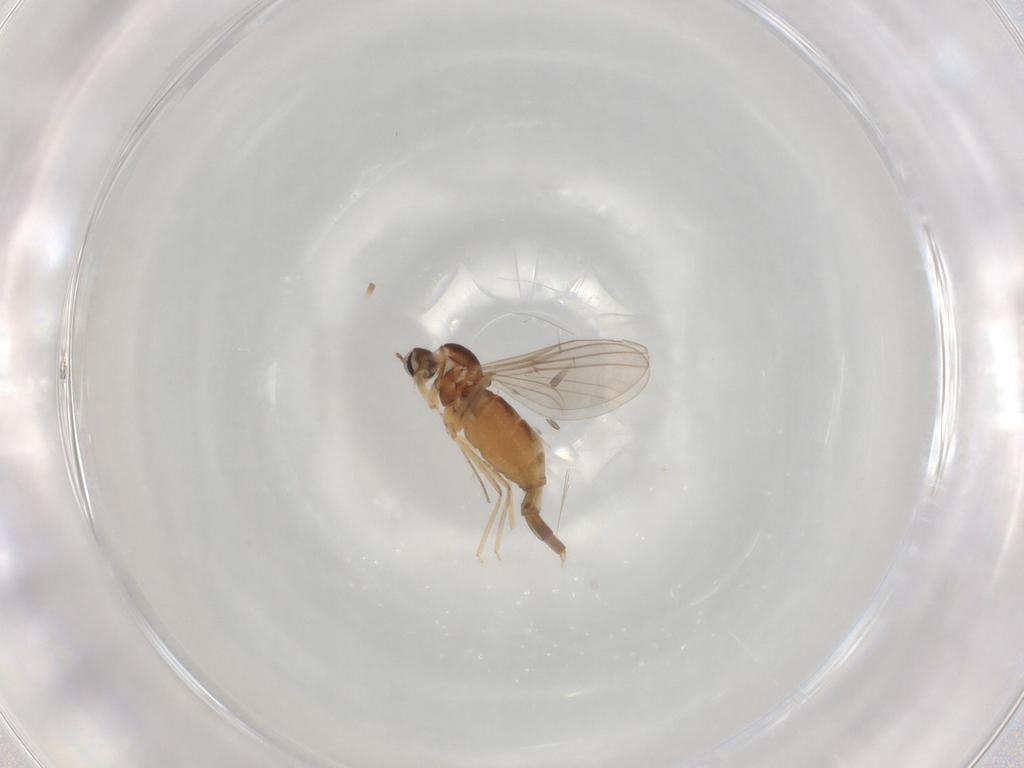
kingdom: Animalia
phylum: Arthropoda
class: Insecta
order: Diptera
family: Cecidomyiidae
